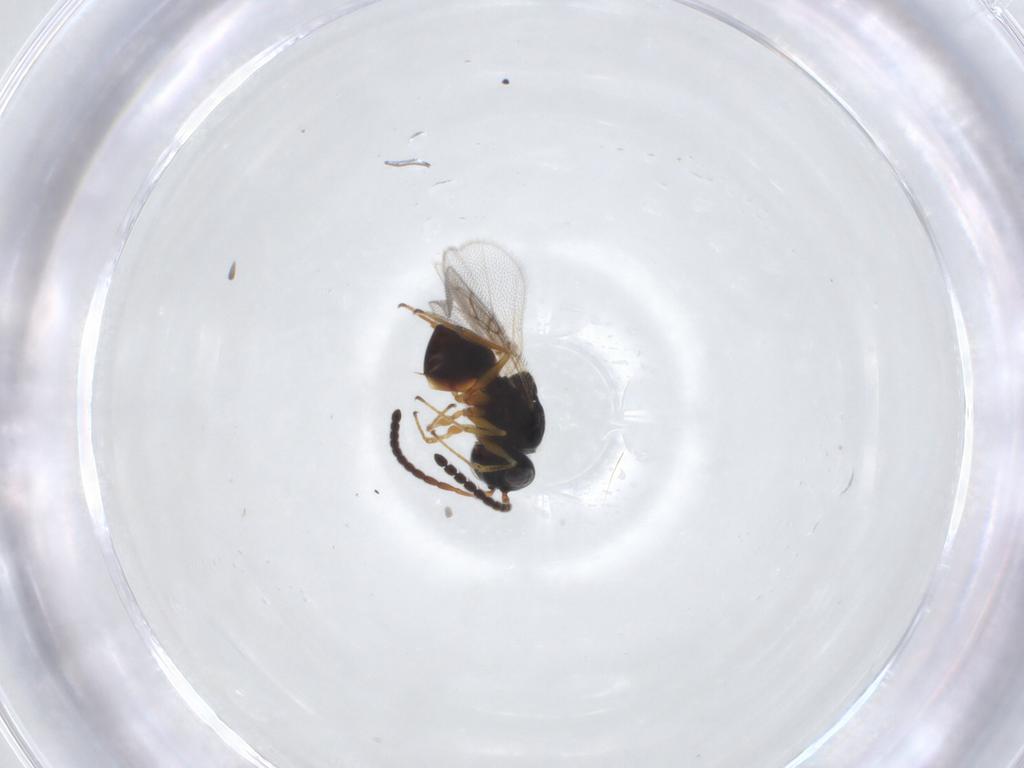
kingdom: Animalia
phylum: Arthropoda
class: Insecta
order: Hymenoptera
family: Figitidae
